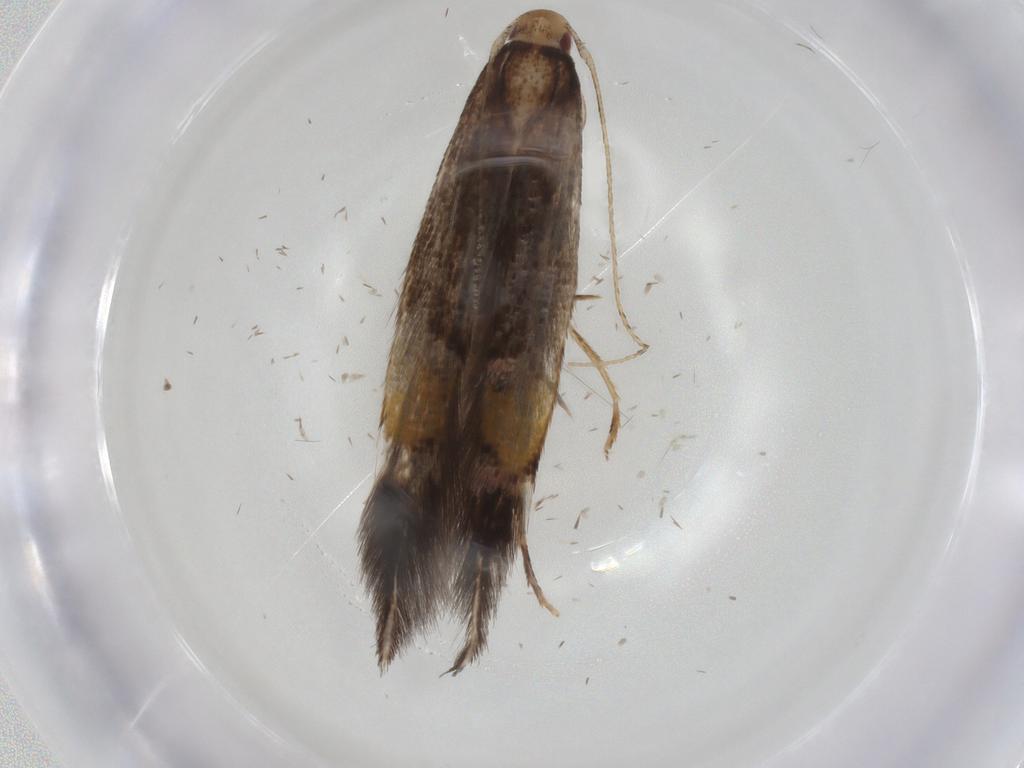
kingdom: Animalia
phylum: Arthropoda
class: Insecta
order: Lepidoptera
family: Cosmopterigidae
